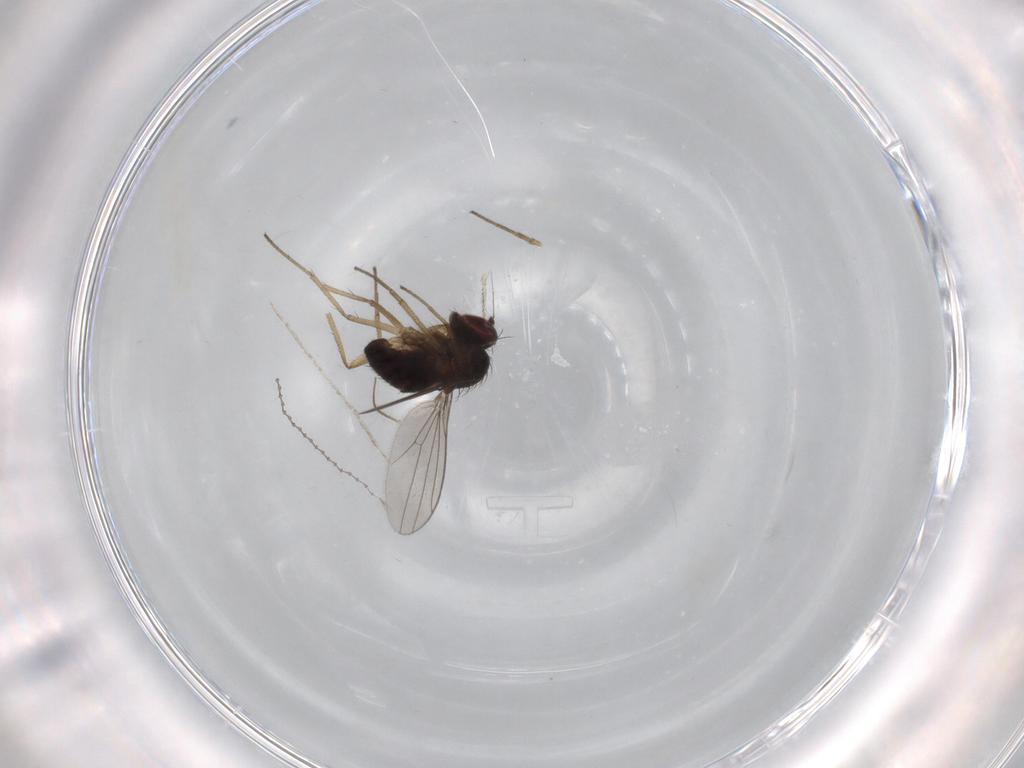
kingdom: Animalia
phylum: Arthropoda
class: Insecta
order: Diptera
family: Dolichopodidae
